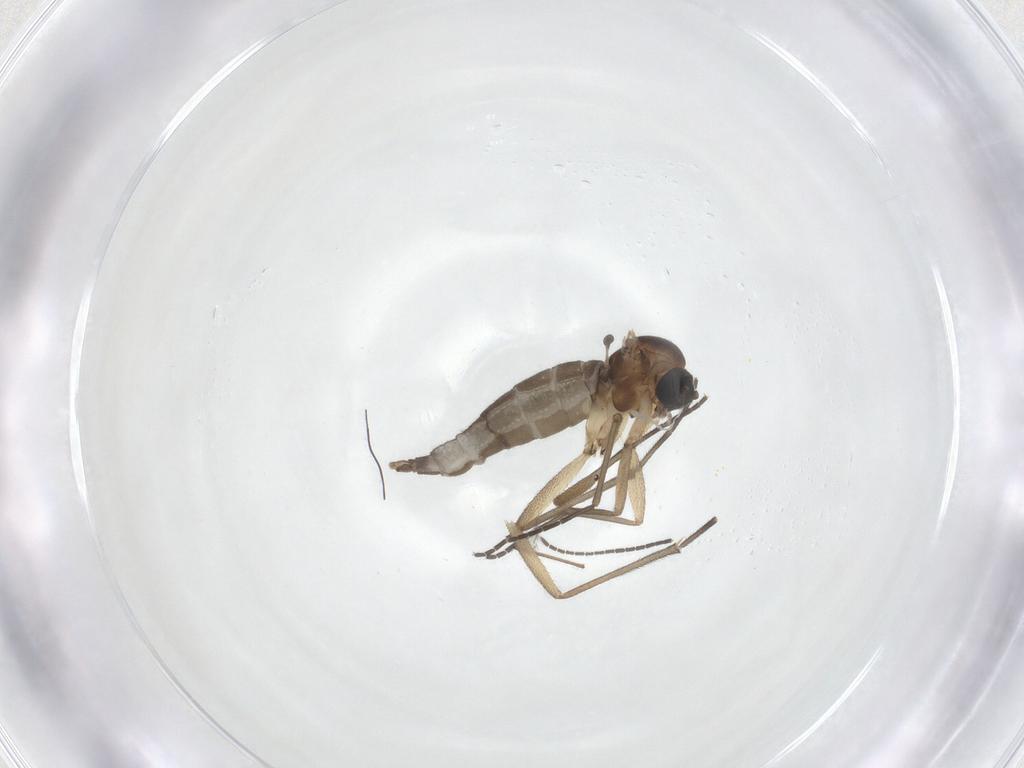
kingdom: Animalia
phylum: Arthropoda
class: Insecta
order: Diptera
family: Sciaridae
